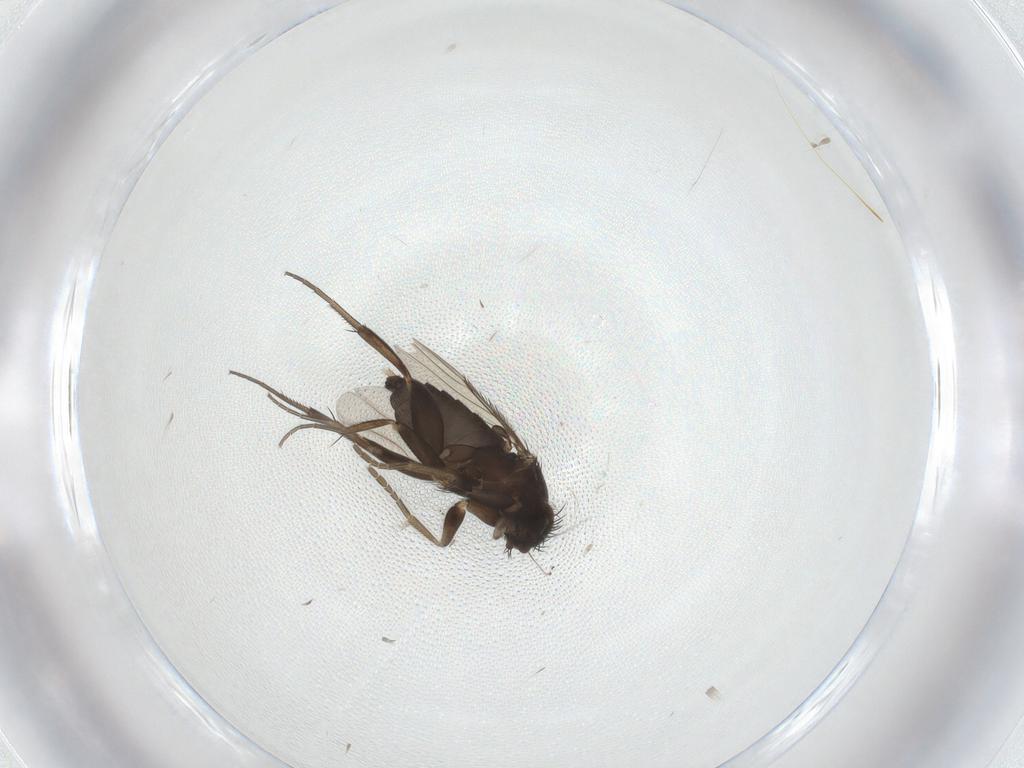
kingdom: Animalia
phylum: Arthropoda
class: Insecta
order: Diptera
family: Phoridae
